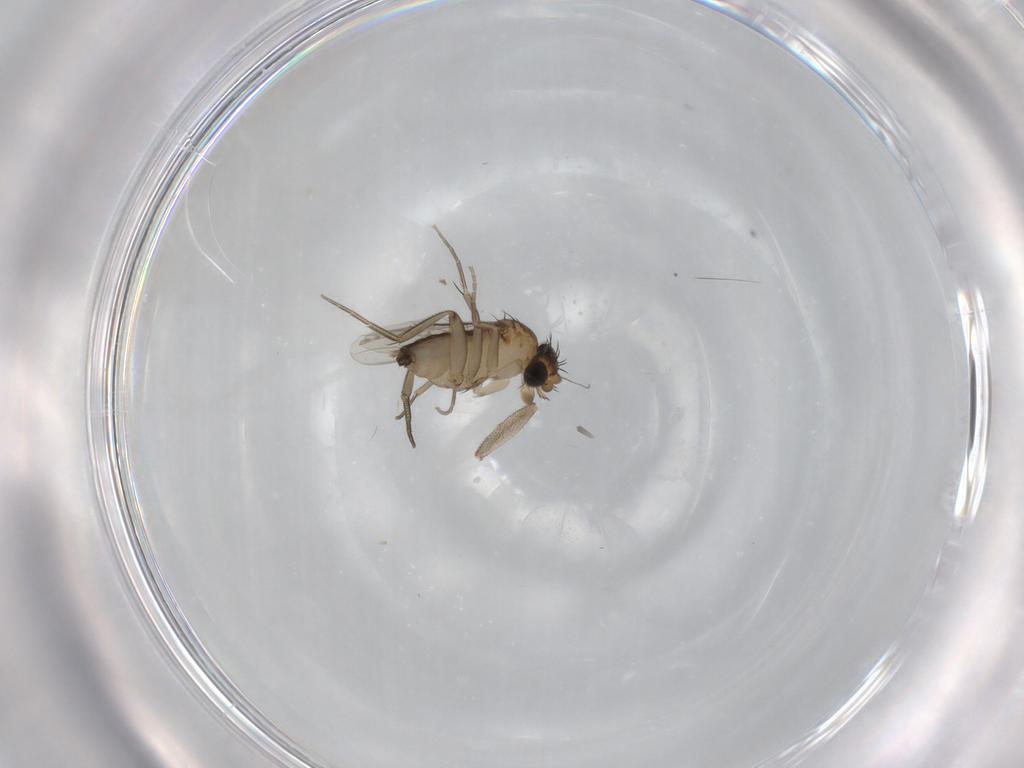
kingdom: Animalia
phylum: Arthropoda
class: Insecta
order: Diptera
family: Phoridae
